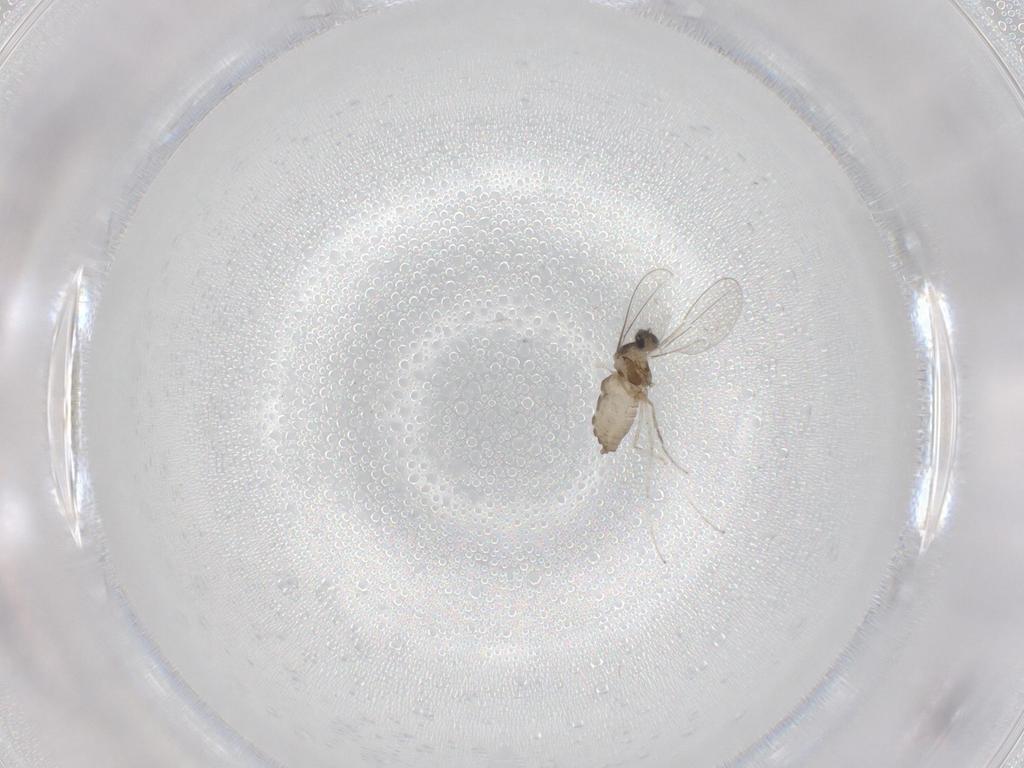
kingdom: Animalia
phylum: Arthropoda
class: Insecta
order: Diptera
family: Cecidomyiidae
